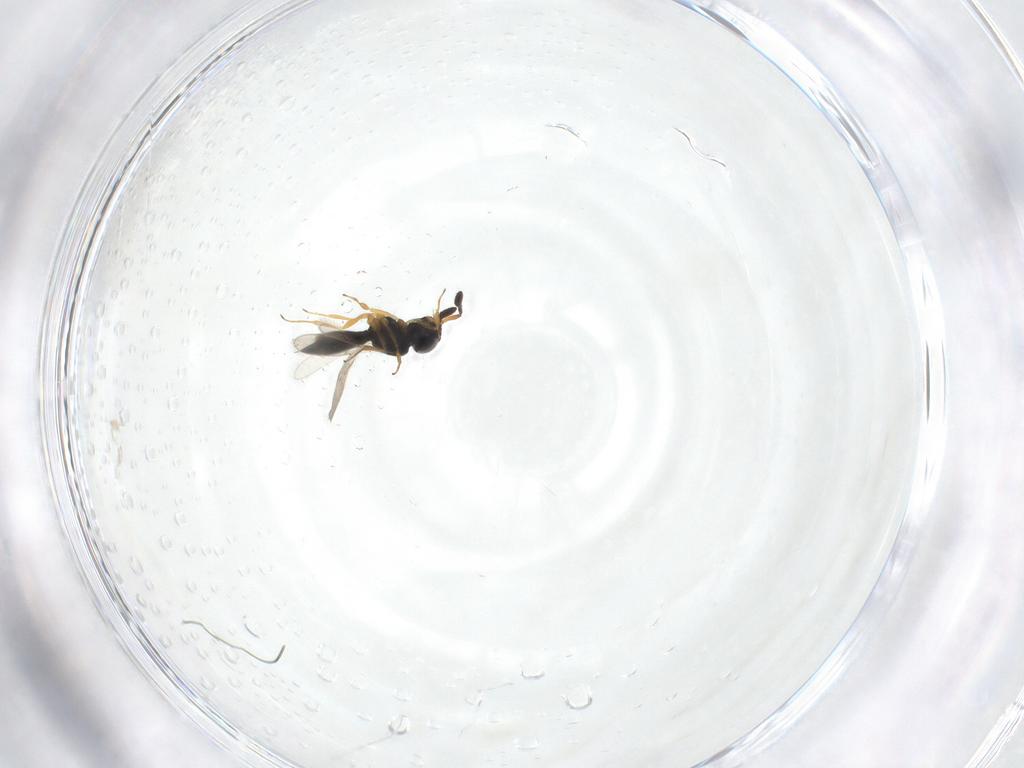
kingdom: Animalia
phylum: Arthropoda
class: Insecta
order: Hymenoptera
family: Scelionidae
